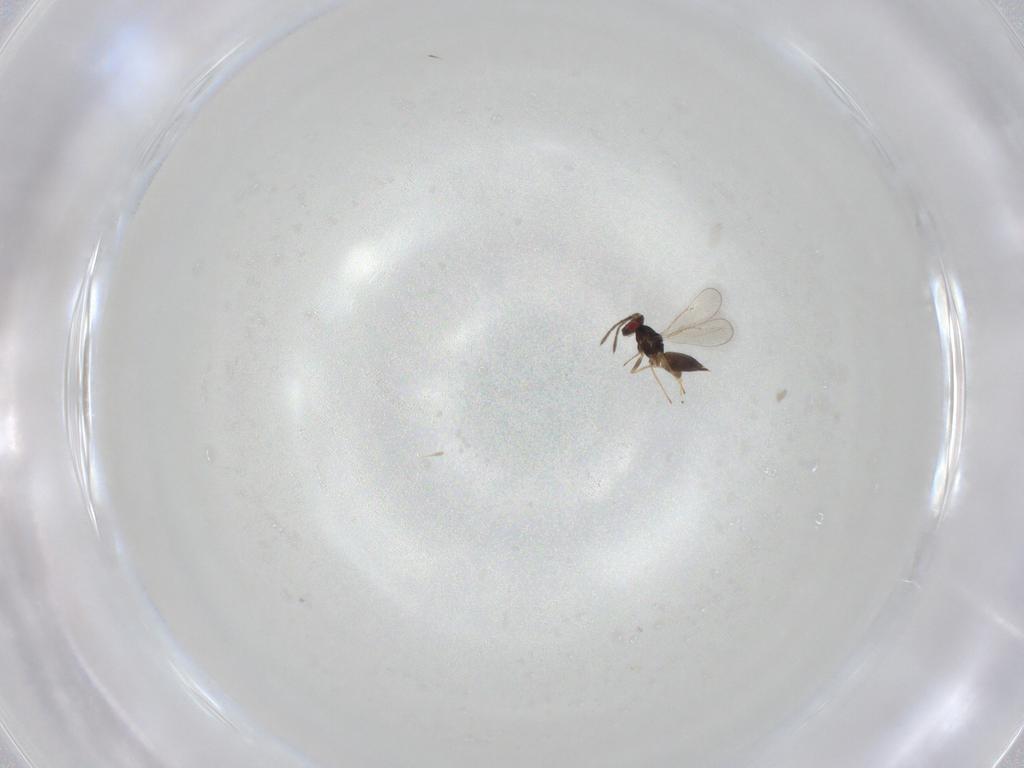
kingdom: Animalia
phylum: Arthropoda
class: Insecta
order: Hymenoptera
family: Eulophidae
